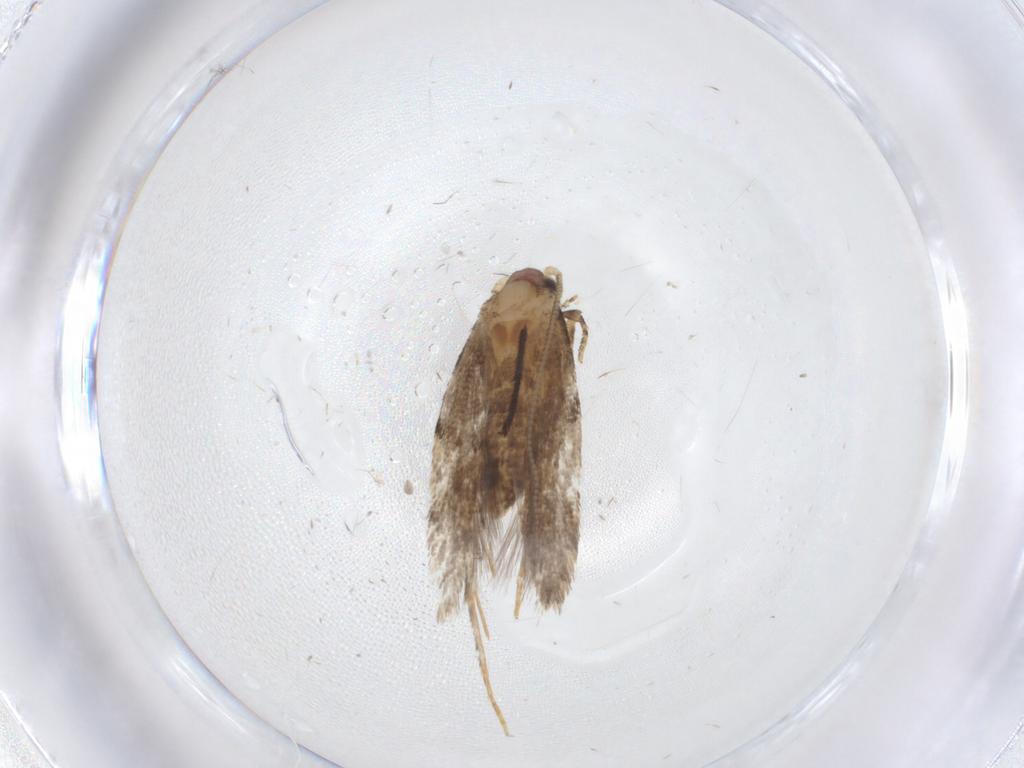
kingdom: Animalia
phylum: Arthropoda
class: Insecta
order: Lepidoptera
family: Tineidae
